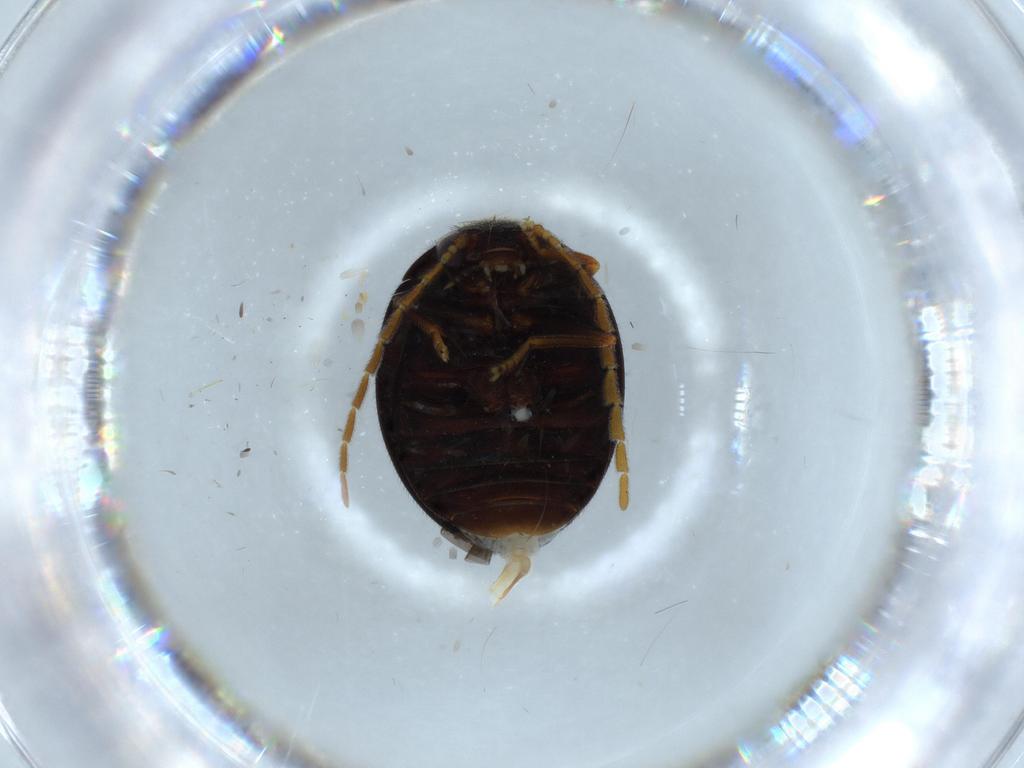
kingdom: Animalia
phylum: Arthropoda
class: Insecta
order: Coleoptera
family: Scirtidae
